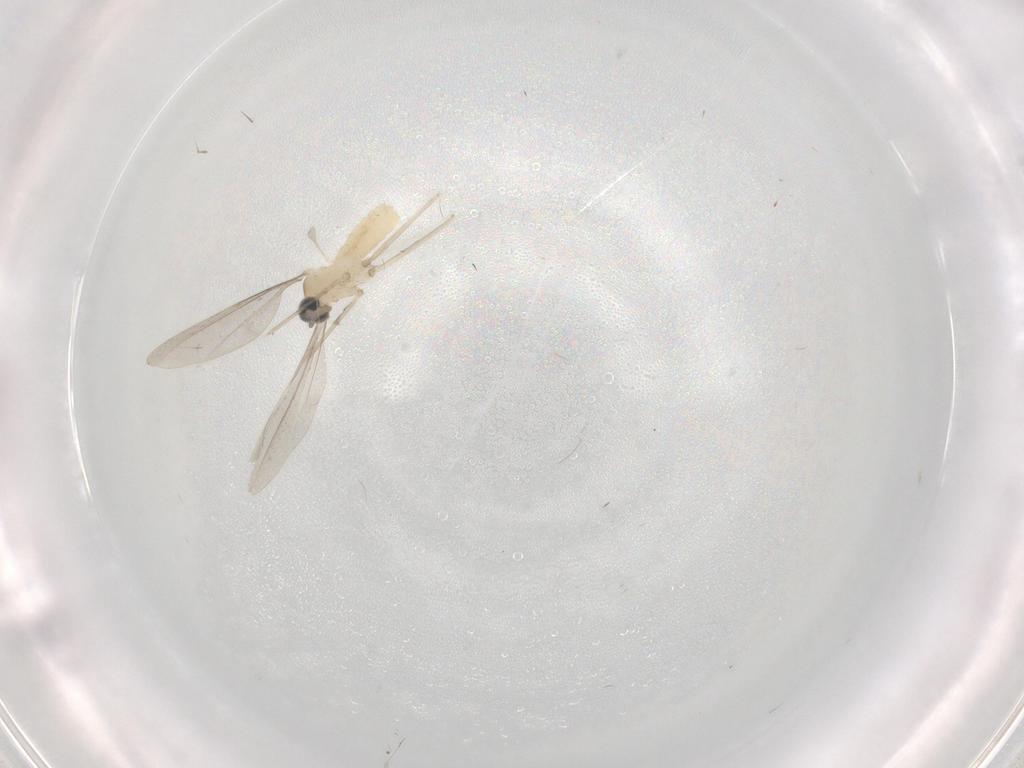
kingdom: Animalia
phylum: Arthropoda
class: Insecta
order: Diptera
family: Cecidomyiidae
